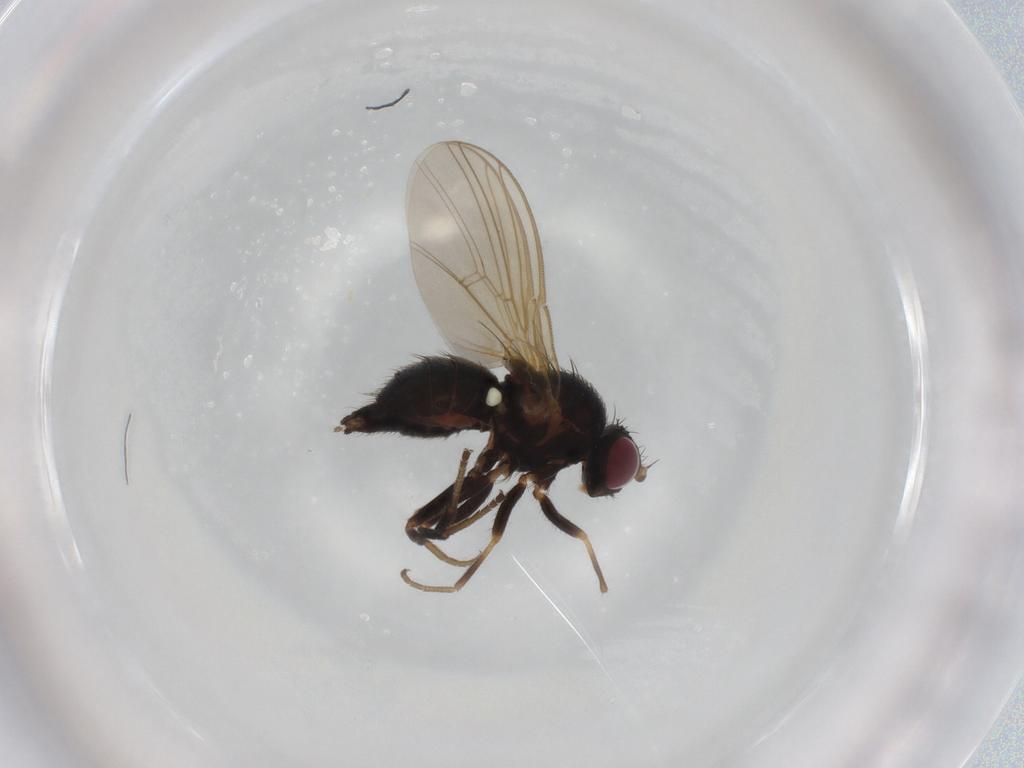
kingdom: Animalia
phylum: Arthropoda
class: Insecta
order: Diptera
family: Agromyzidae
